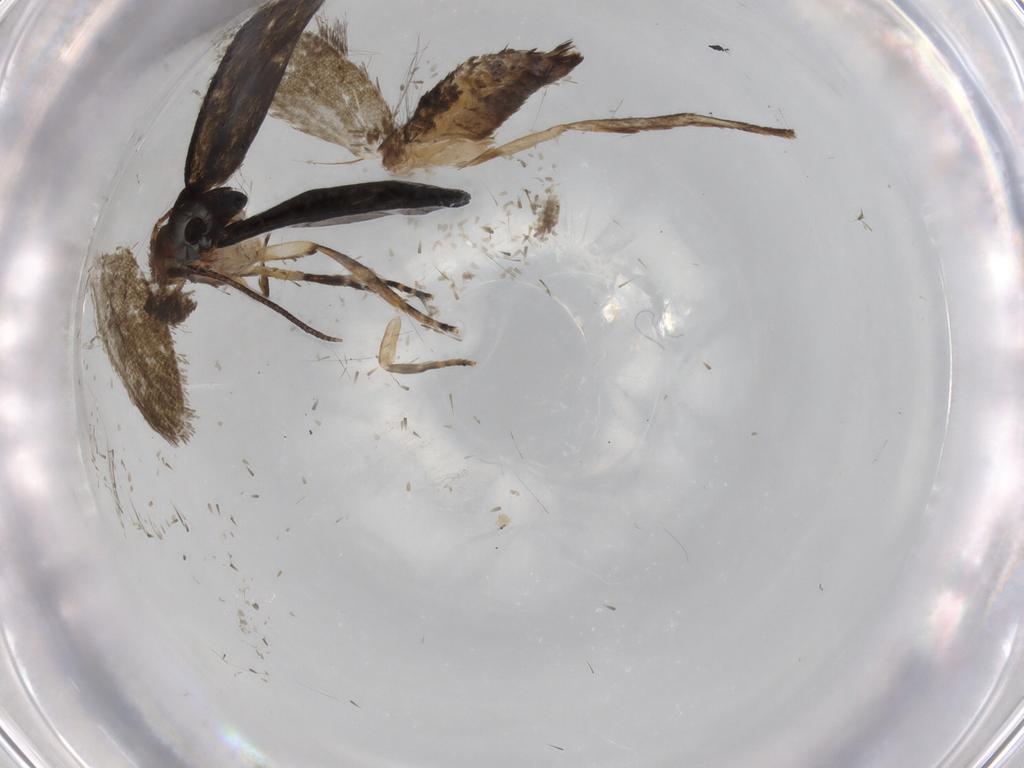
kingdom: Animalia
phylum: Arthropoda
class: Insecta
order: Lepidoptera
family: Crambidae
